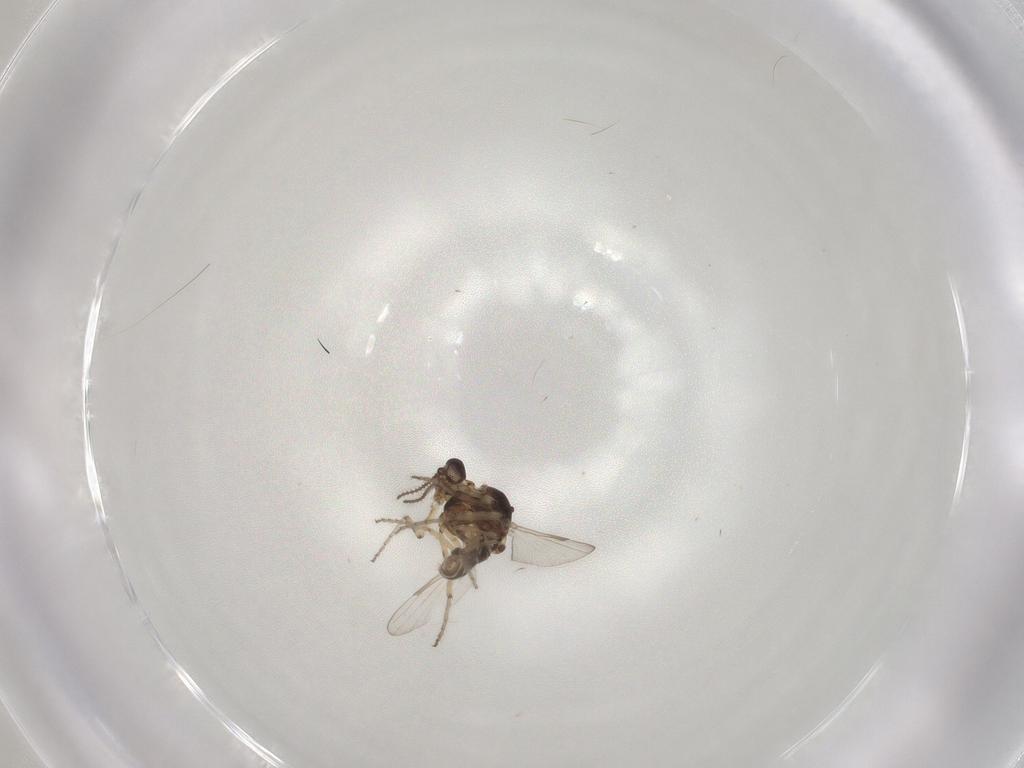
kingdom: Animalia
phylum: Arthropoda
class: Insecta
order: Diptera
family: Ceratopogonidae
